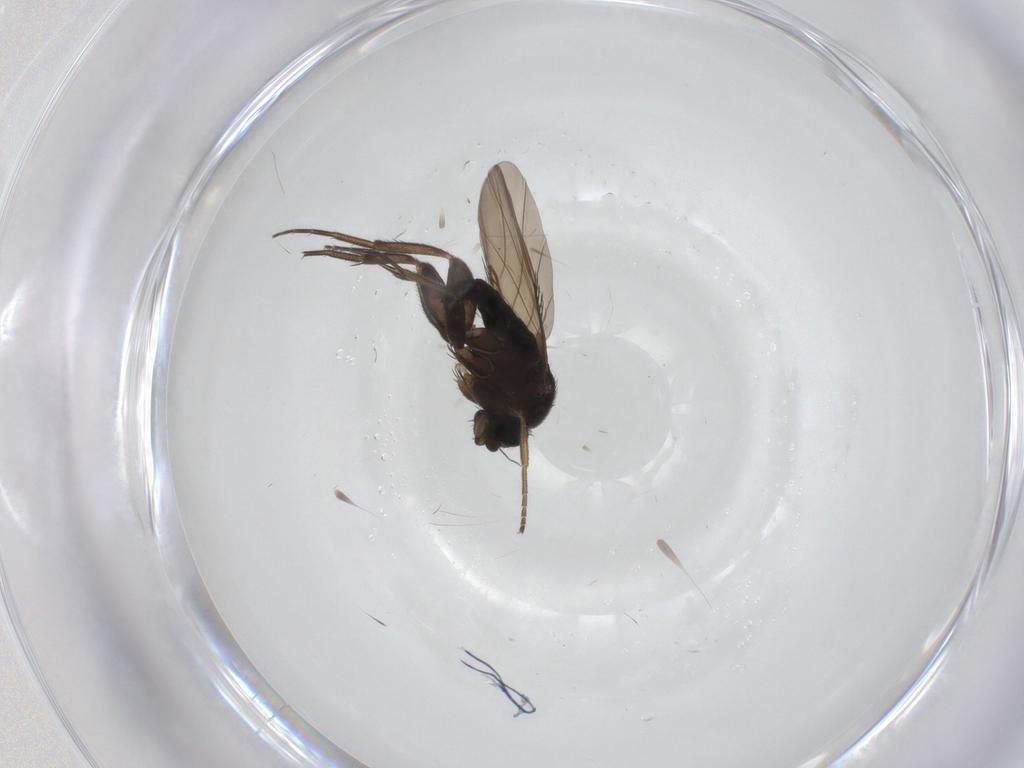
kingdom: Animalia
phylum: Arthropoda
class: Insecta
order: Diptera
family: Phoridae
